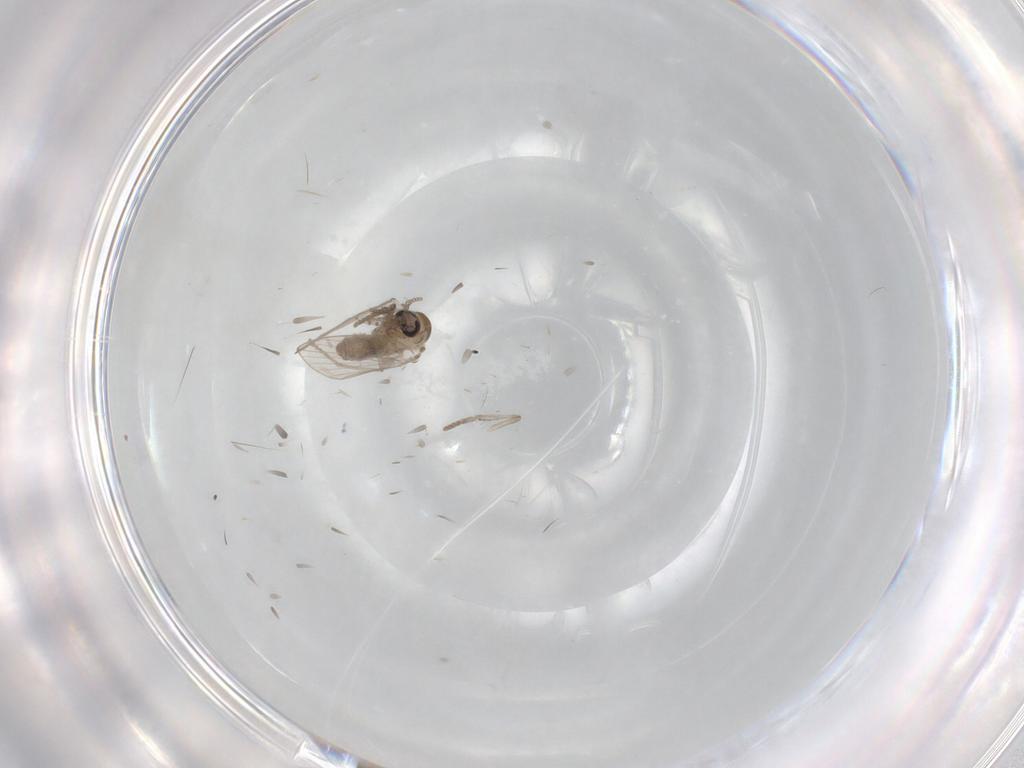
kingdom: Animalia
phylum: Arthropoda
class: Insecta
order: Diptera
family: Psychodidae
